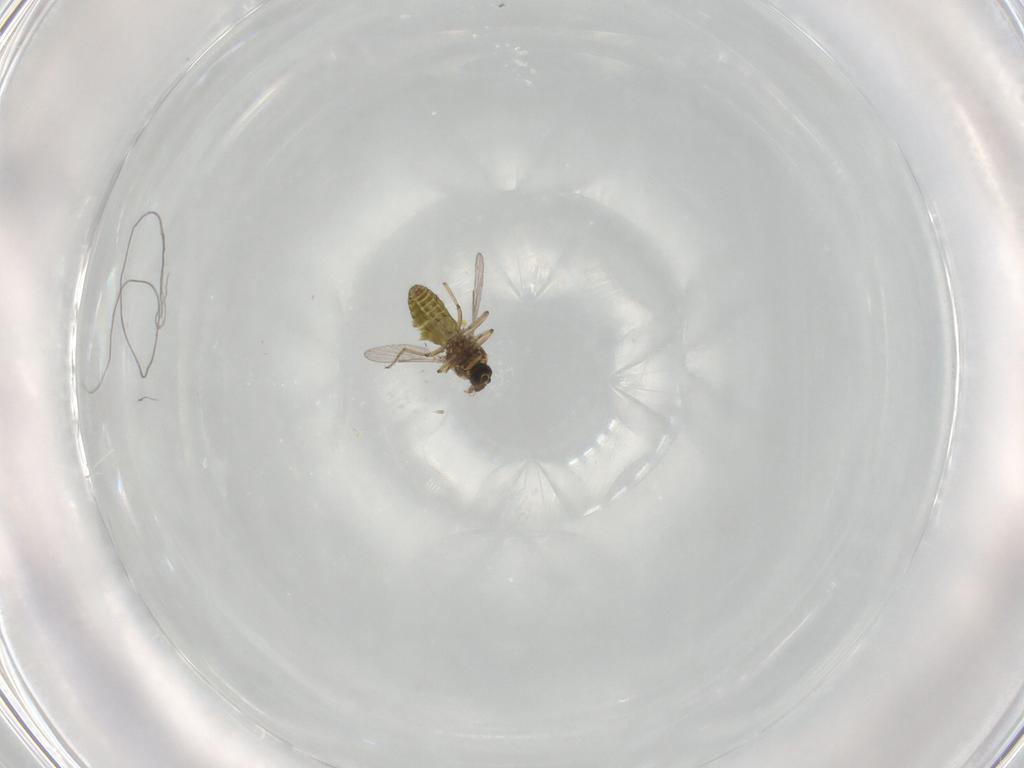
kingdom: Animalia
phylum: Arthropoda
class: Insecta
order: Diptera
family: Ceratopogonidae
